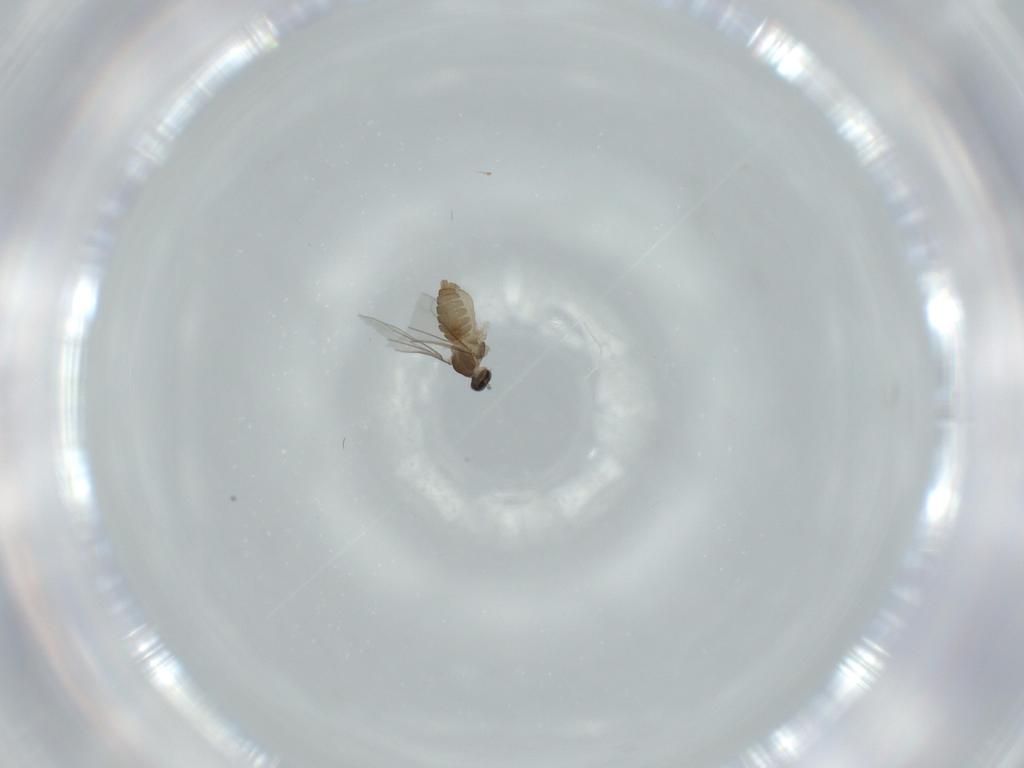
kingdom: Animalia
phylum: Arthropoda
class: Insecta
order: Diptera
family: Cecidomyiidae
